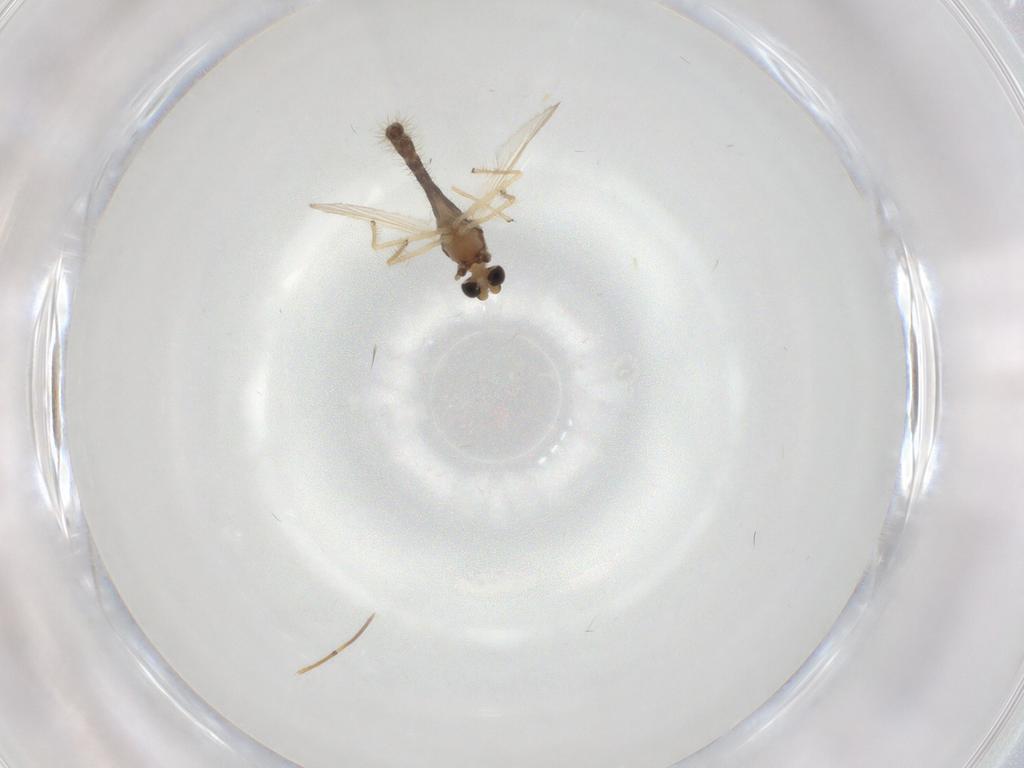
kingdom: Animalia
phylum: Arthropoda
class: Insecta
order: Diptera
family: Chironomidae
